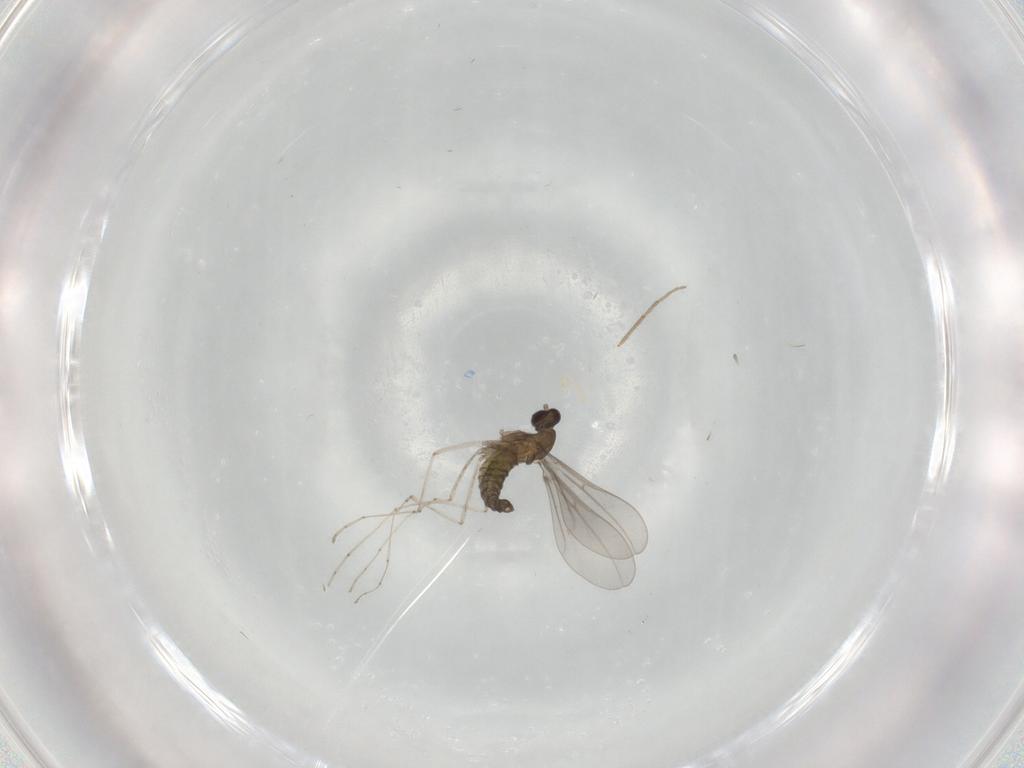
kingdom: Animalia
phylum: Arthropoda
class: Insecta
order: Diptera
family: Cecidomyiidae
